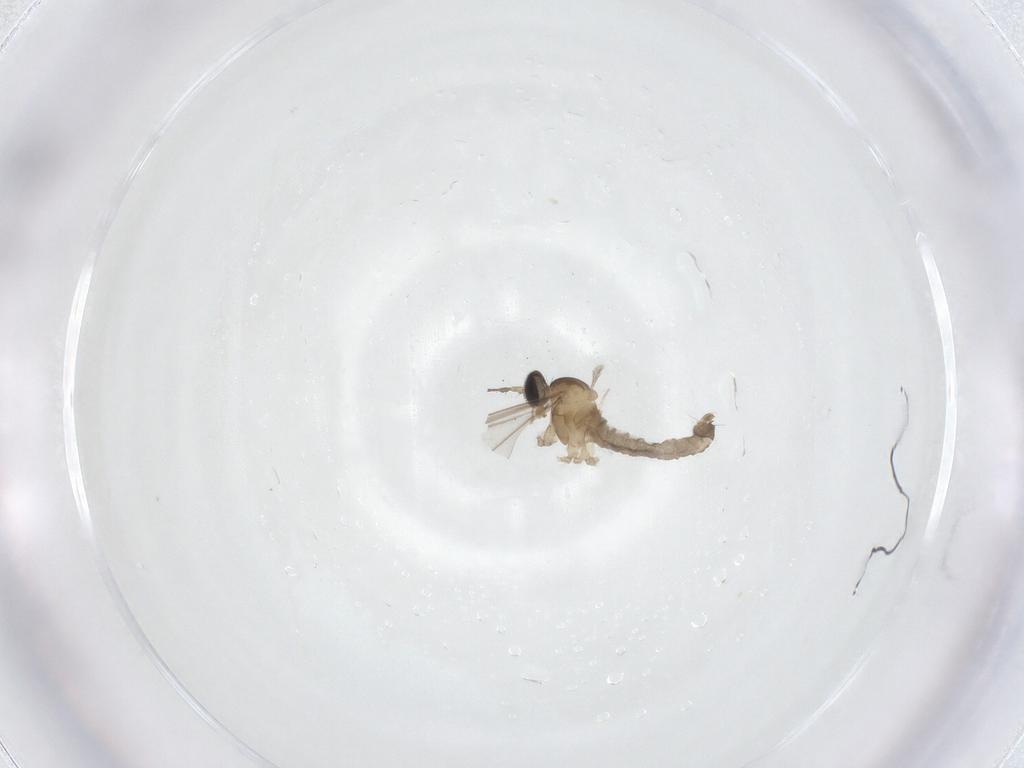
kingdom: Animalia
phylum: Arthropoda
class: Insecta
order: Diptera
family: Cecidomyiidae
